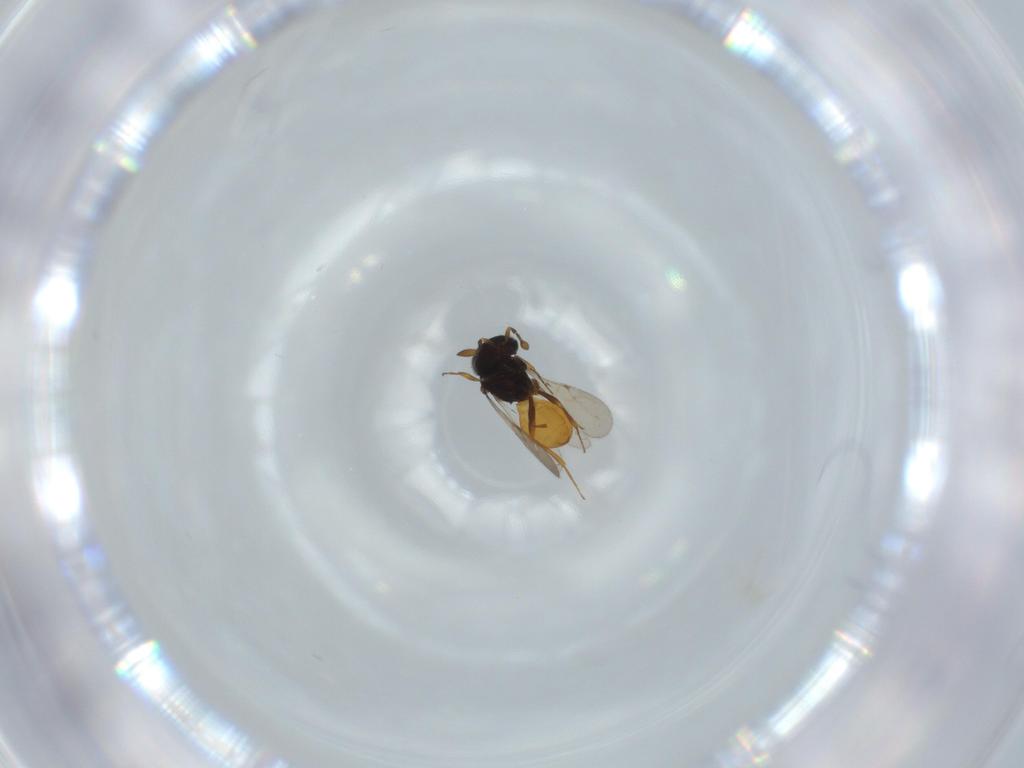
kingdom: Animalia
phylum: Arthropoda
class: Insecta
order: Hymenoptera
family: Scelionidae
